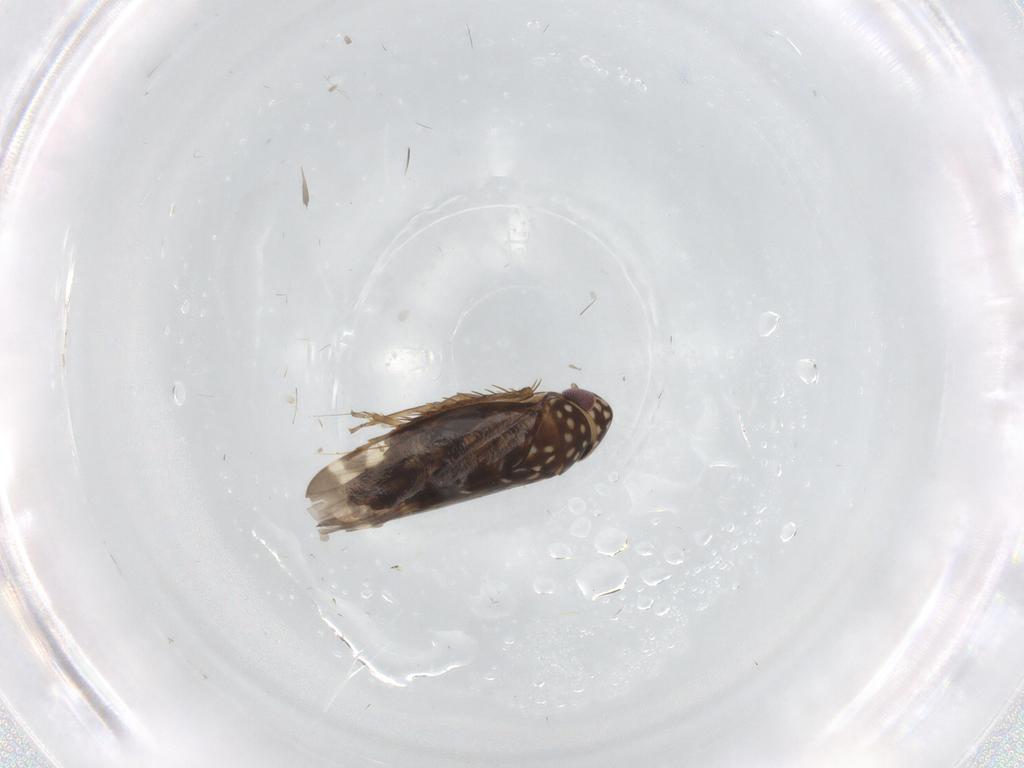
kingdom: Animalia
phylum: Arthropoda
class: Insecta
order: Hemiptera
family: Cicadellidae
